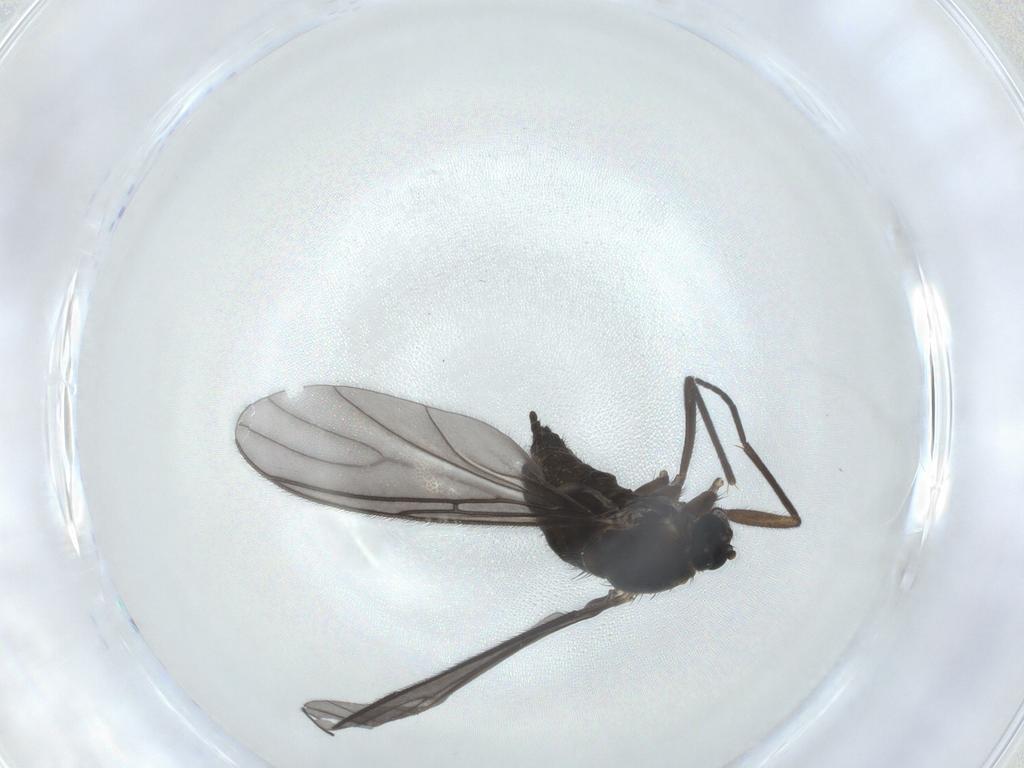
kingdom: Animalia
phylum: Arthropoda
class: Insecta
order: Diptera
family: Sciaridae
